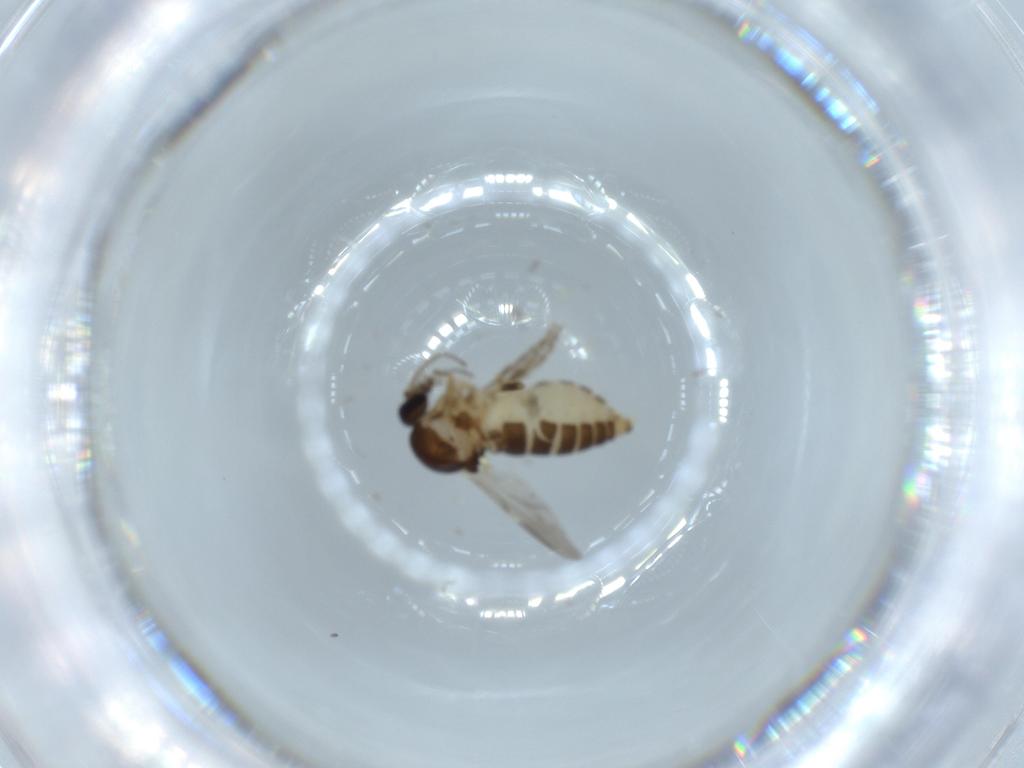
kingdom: Animalia
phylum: Arthropoda
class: Insecta
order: Diptera
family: Ceratopogonidae
